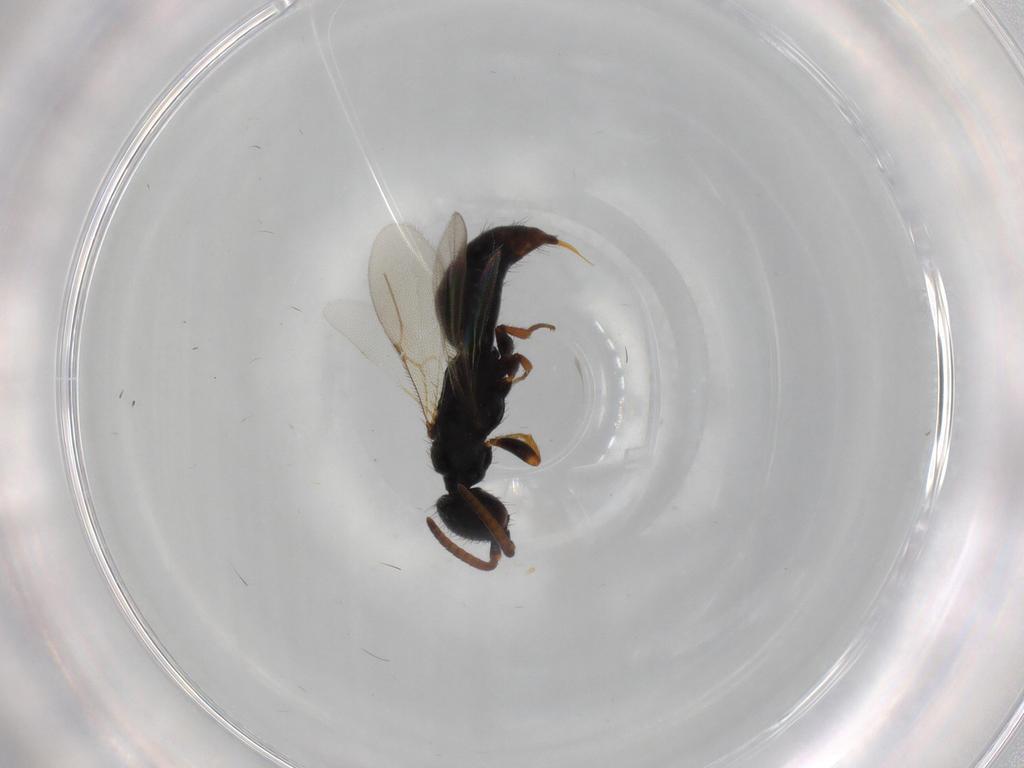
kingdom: Animalia
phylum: Arthropoda
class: Insecta
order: Hymenoptera
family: Bethylidae
